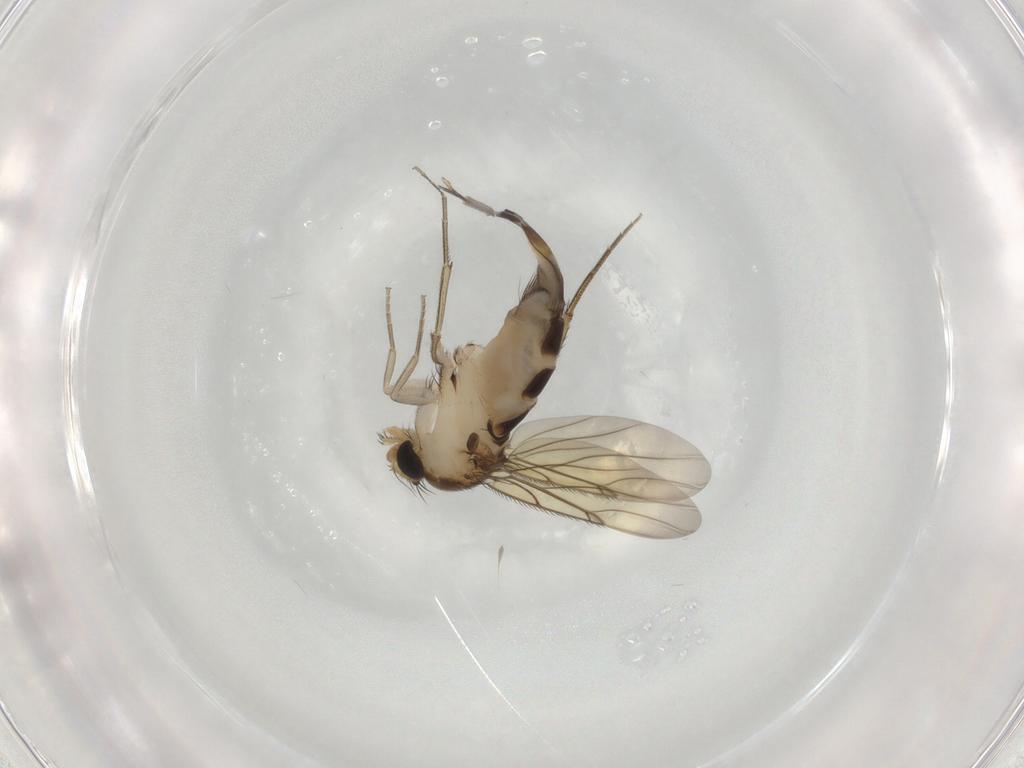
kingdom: Animalia
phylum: Arthropoda
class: Insecta
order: Diptera
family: Phoridae
